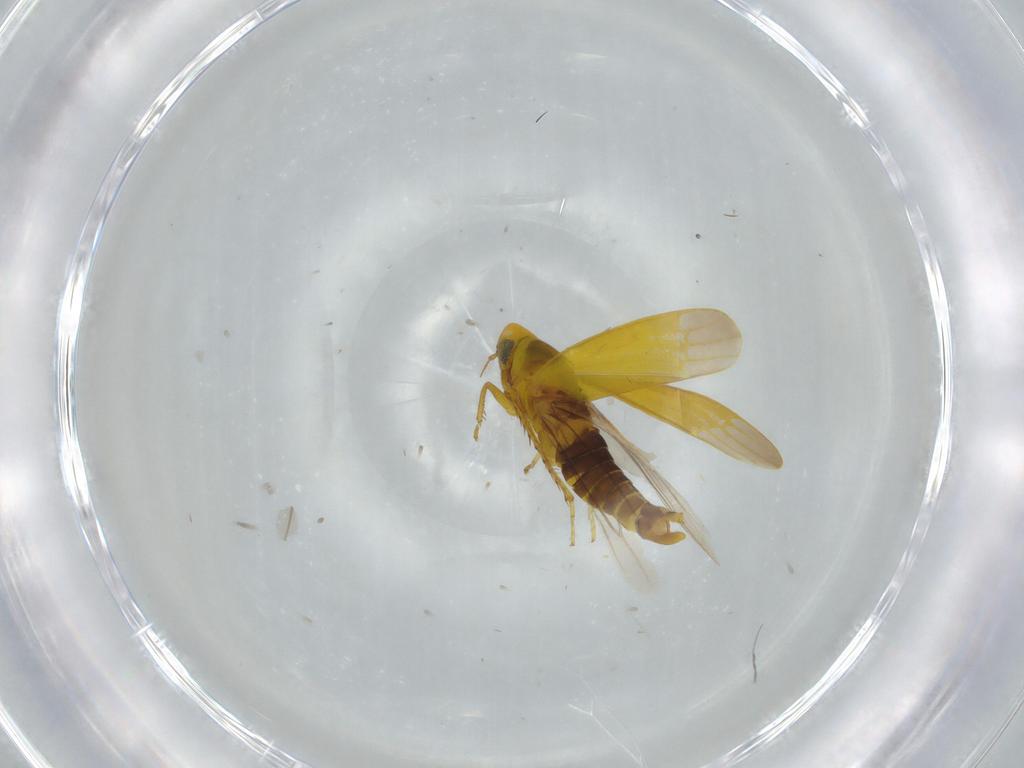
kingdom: Animalia
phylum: Arthropoda
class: Insecta
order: Hemiptera
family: Cicadellidae
